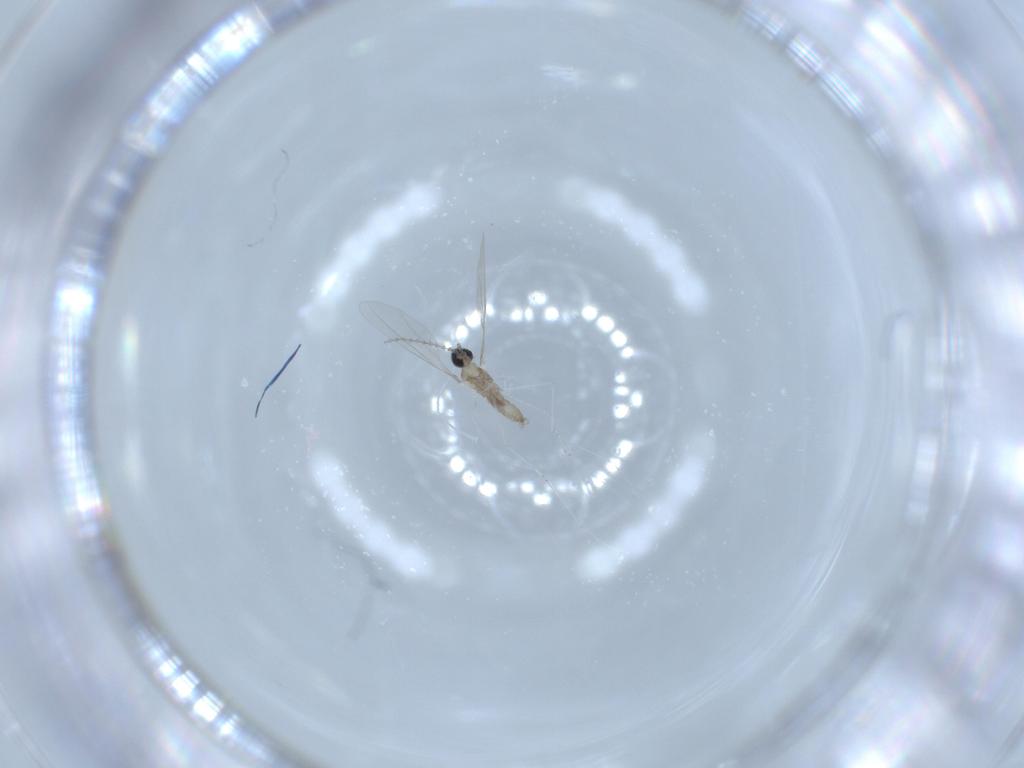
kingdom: Animalia
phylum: Arthropoda
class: Insecta
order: Diptera
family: Cecidomyiidae
